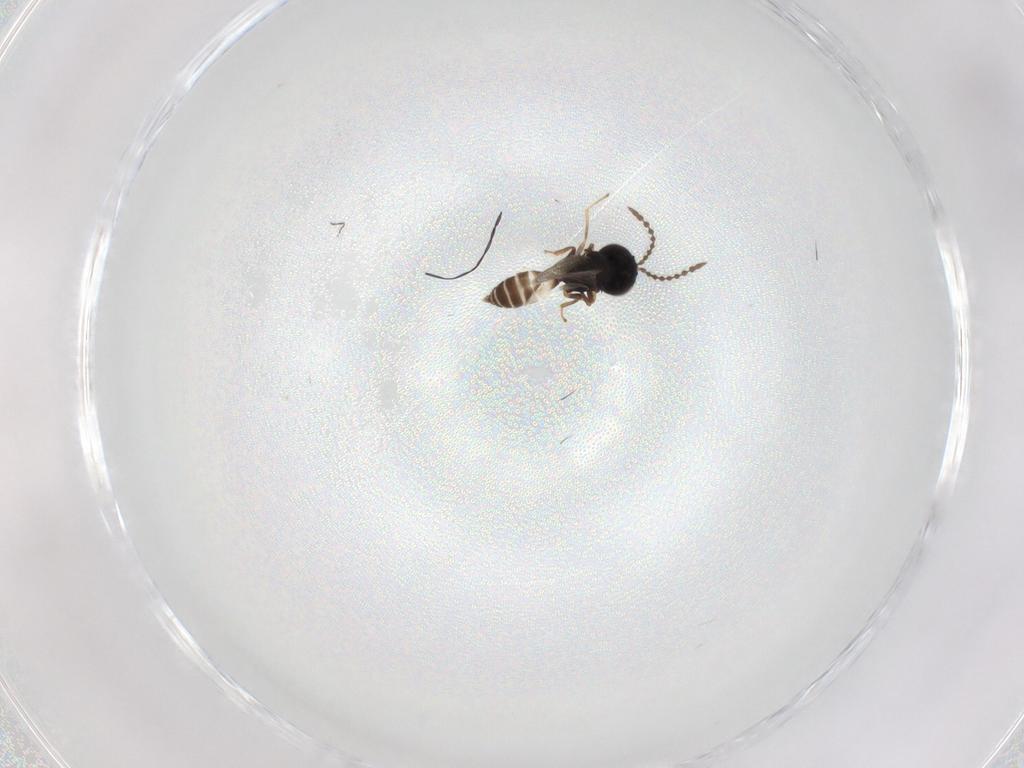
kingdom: Animalia
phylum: Arthropoda
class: Insecta
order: Hymenoptera
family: Pteromalidae
